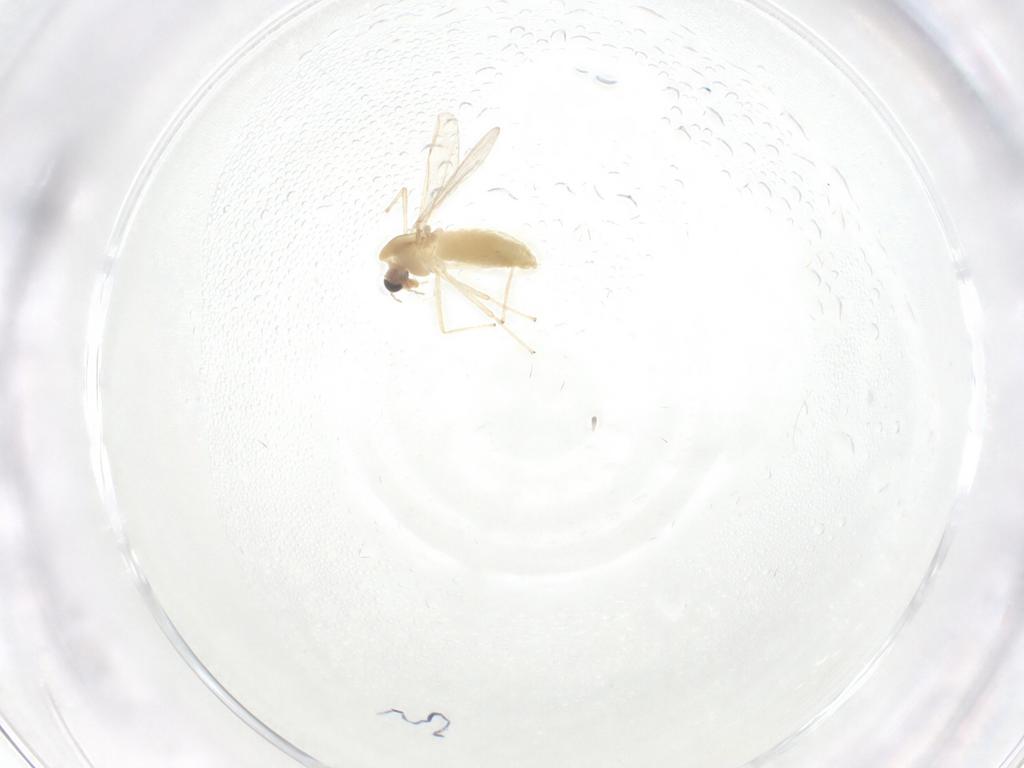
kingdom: Animalia
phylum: Arthropoda
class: Insecta
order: Diptera
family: Chironomidae
